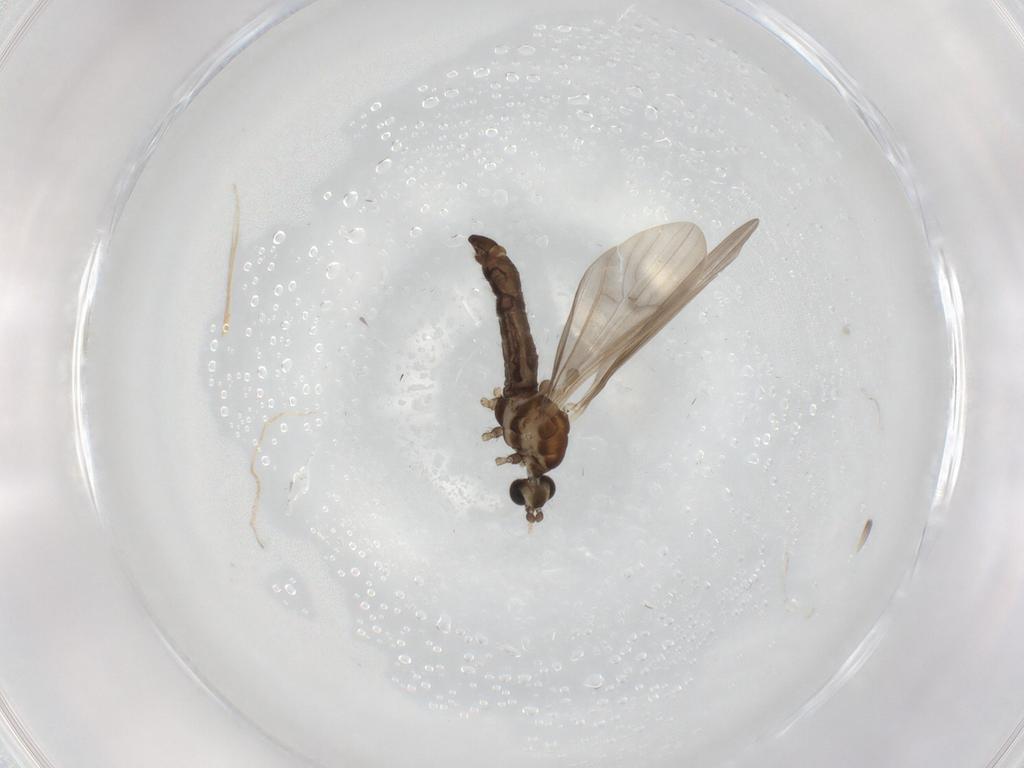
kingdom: Animalia
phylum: Arthropoda
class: Insecta
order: Diptera
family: Limoniidae
